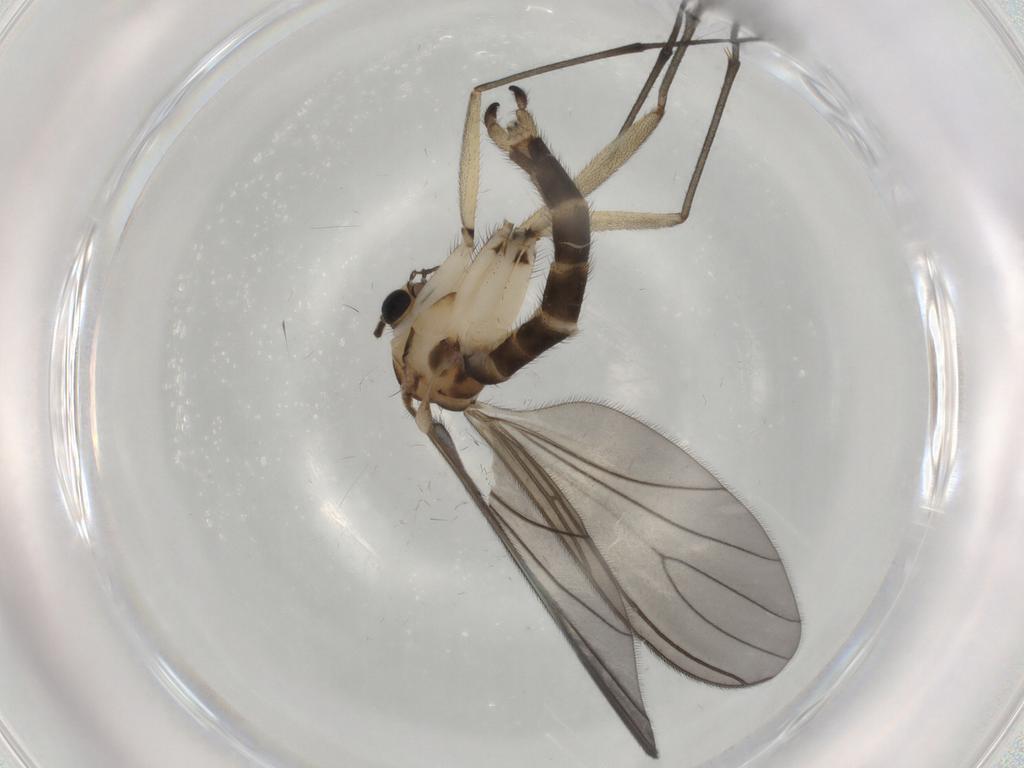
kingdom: Animalia
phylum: Arthropoda
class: Insecta
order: Diptera
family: Sciaridae
